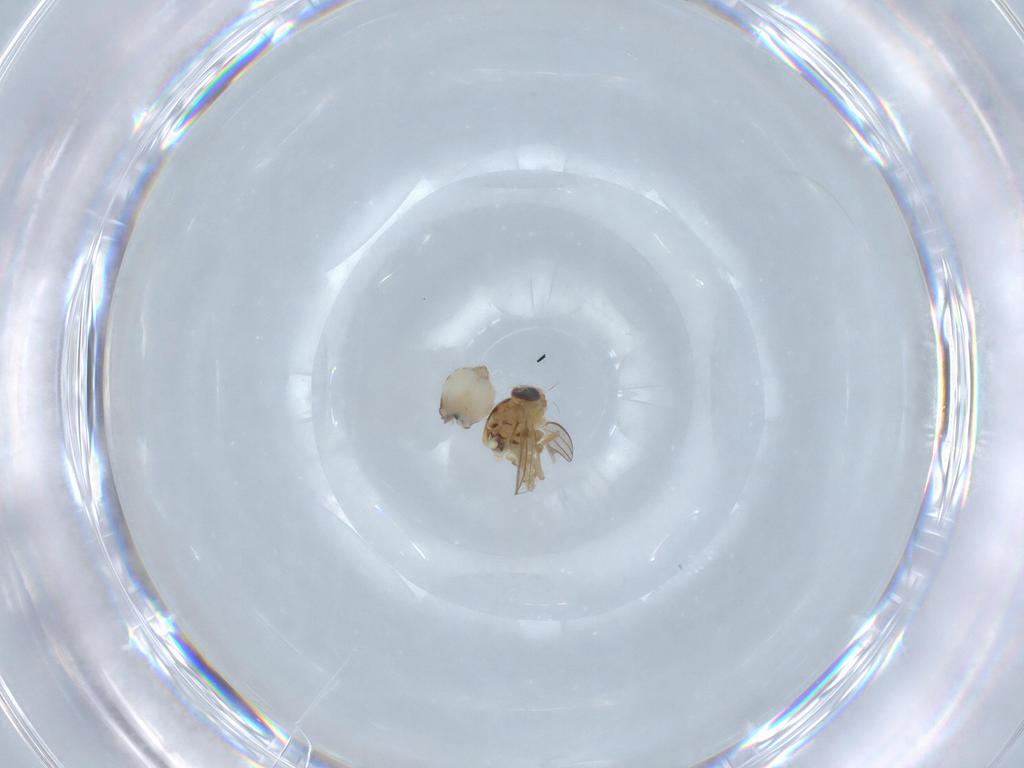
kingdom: Animalia
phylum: Arthropoda
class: Insecta
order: Diptera
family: Chyromyidae
